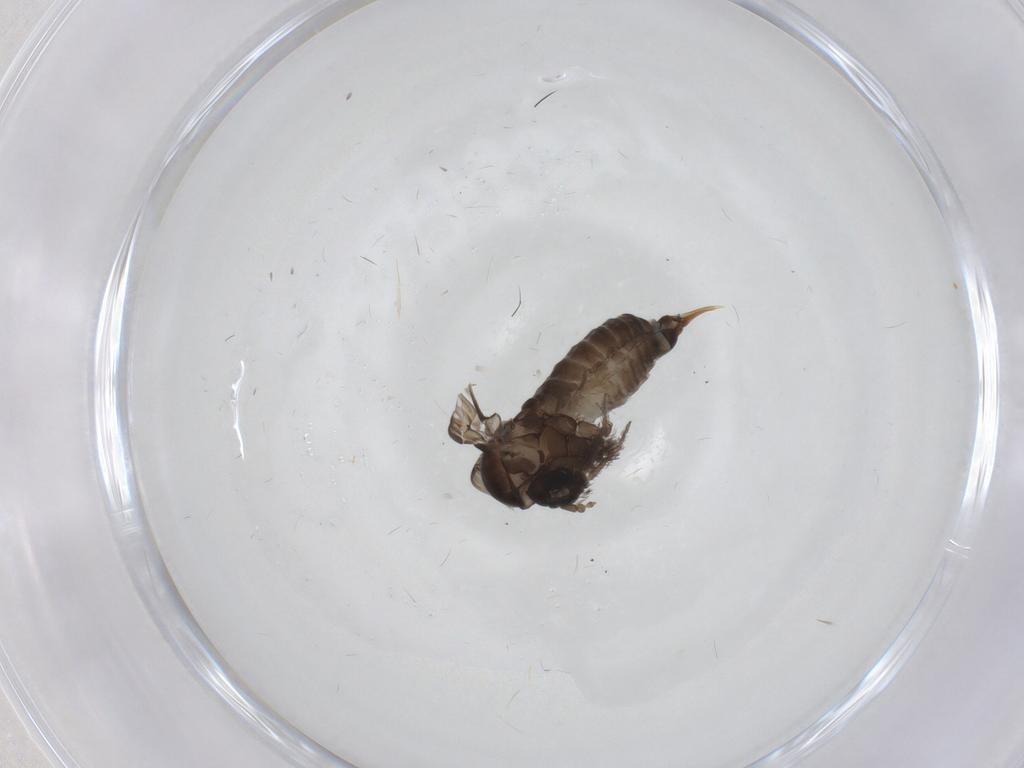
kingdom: Animalia
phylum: Arthropoda
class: Insecta
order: Diptera
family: Psychodidae
